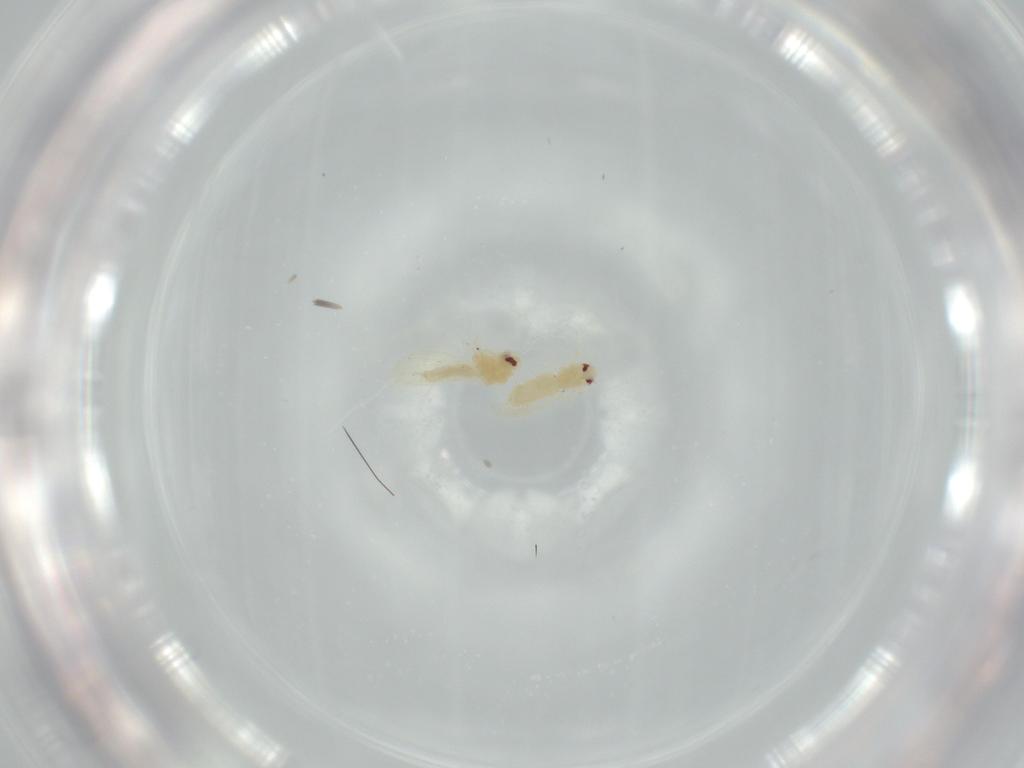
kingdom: Animalia
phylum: Arthropoda
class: Insecta
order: Hemiptera
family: Aleyrodidae
